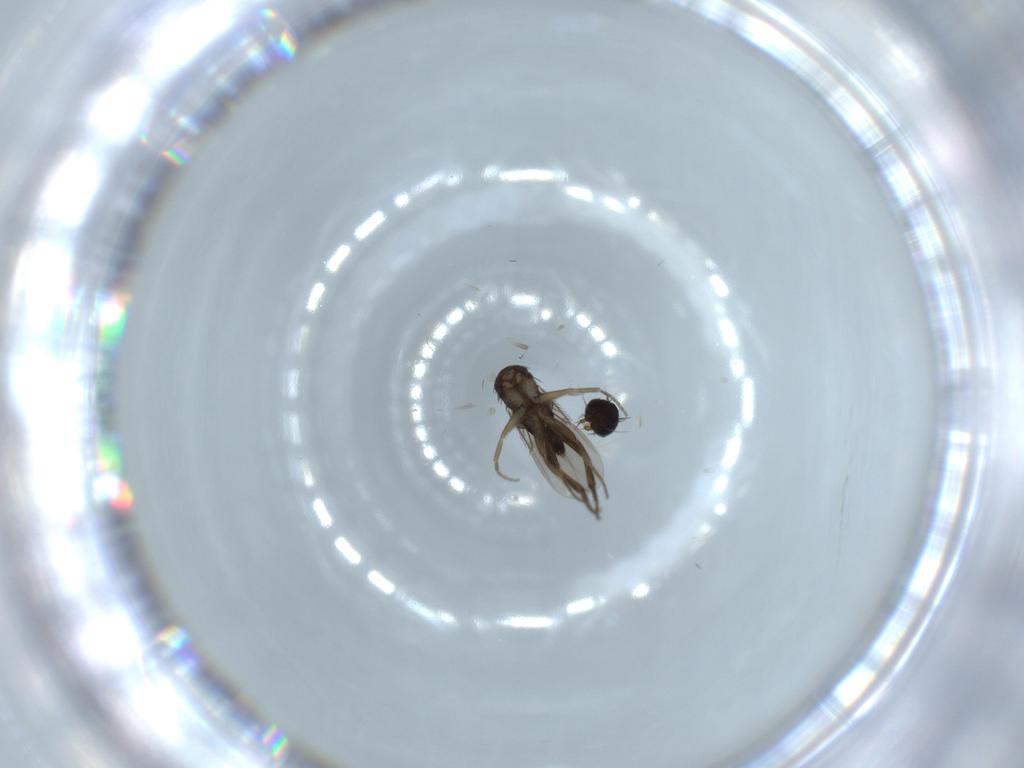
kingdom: Animalia
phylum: Arthropoda
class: Insecta
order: Diptera
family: Phoridae
